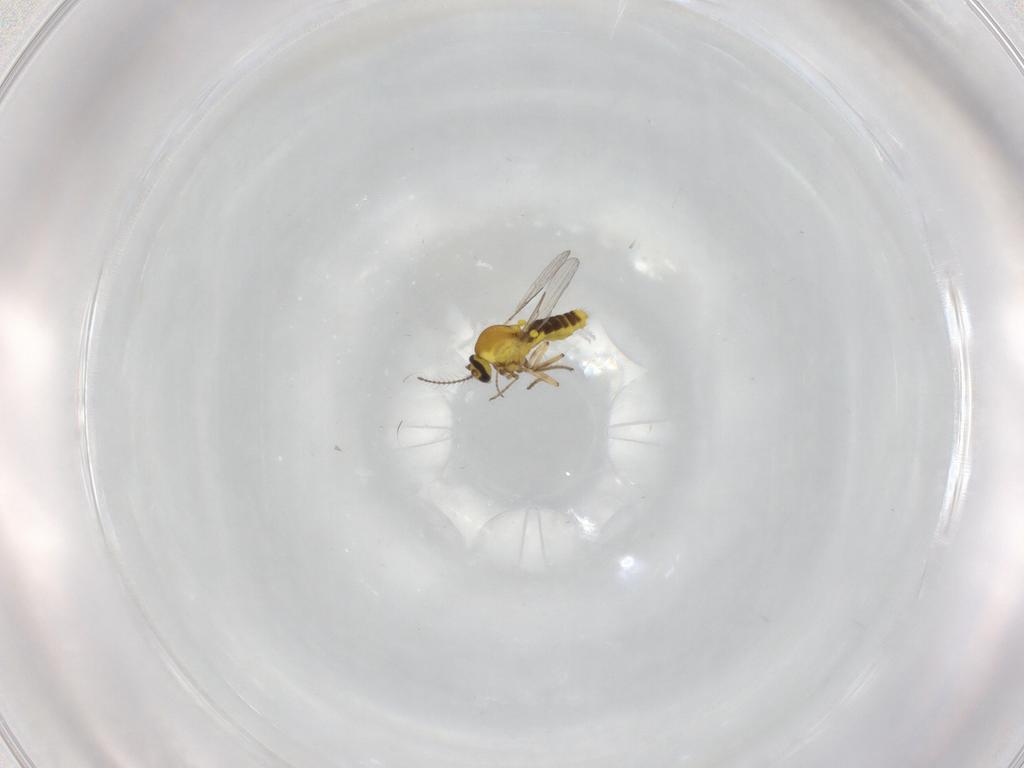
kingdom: Animalia
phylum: Arthropoda
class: Insecta
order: Diptera
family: Ceratopogonidae
